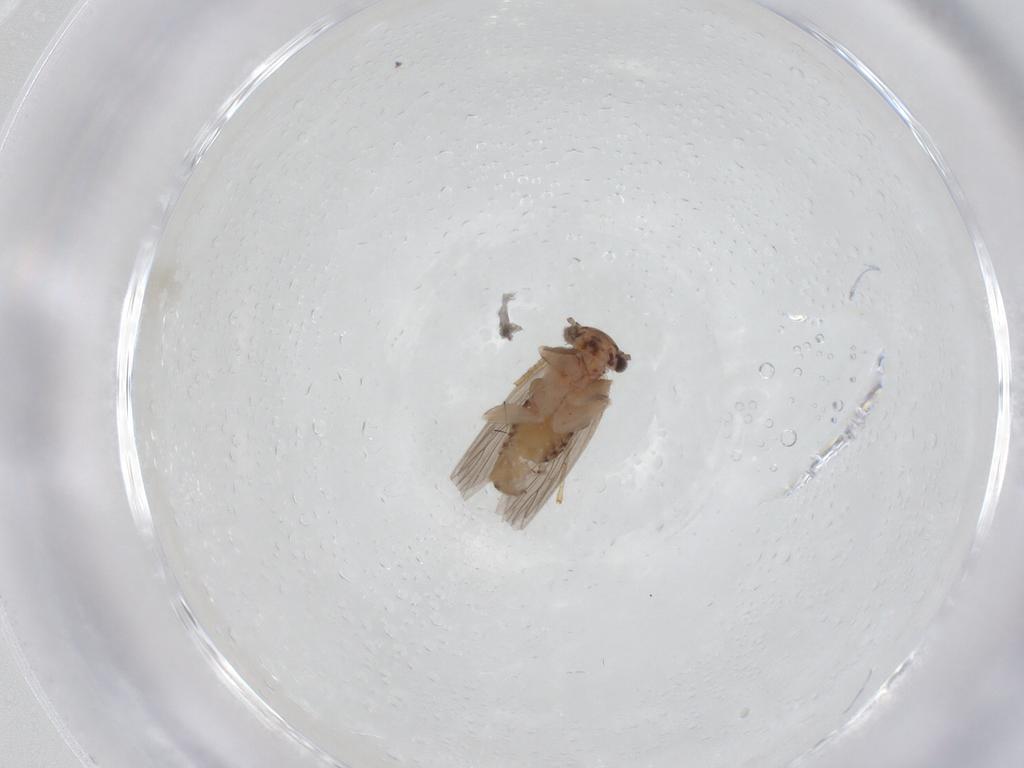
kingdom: Animalia
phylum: Arthropoda
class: Insecta
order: Psocodea
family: Lepidopsocidae
